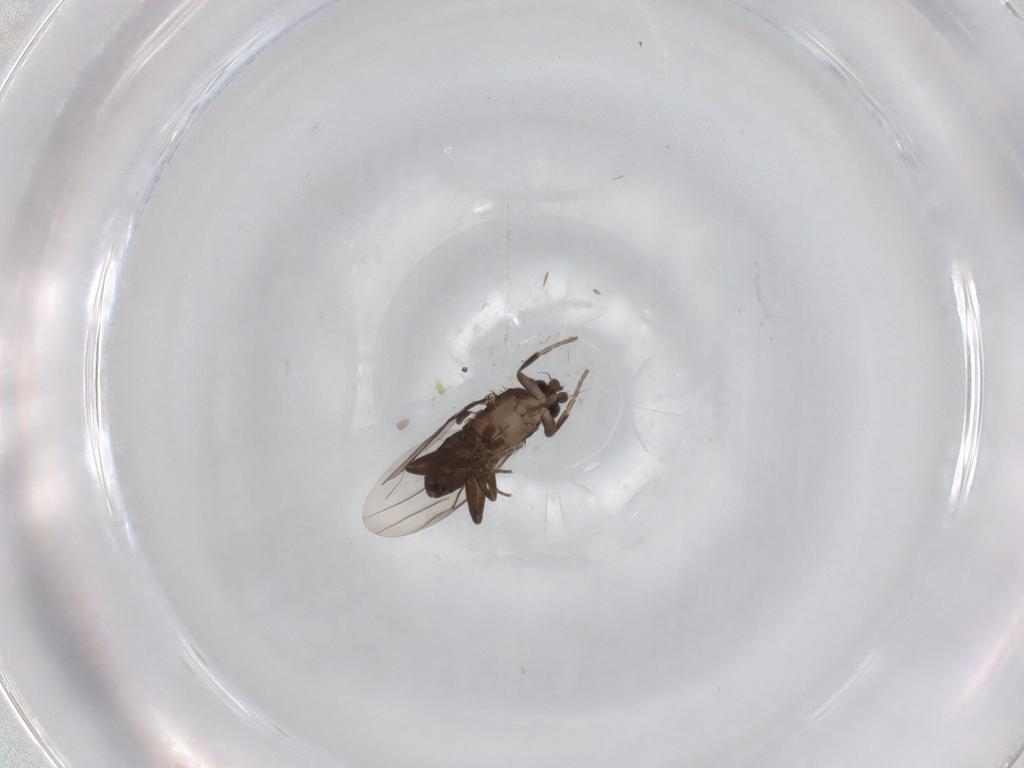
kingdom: Animalia
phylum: Arthropoda
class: Insecta
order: Diptera
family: Phoridae
